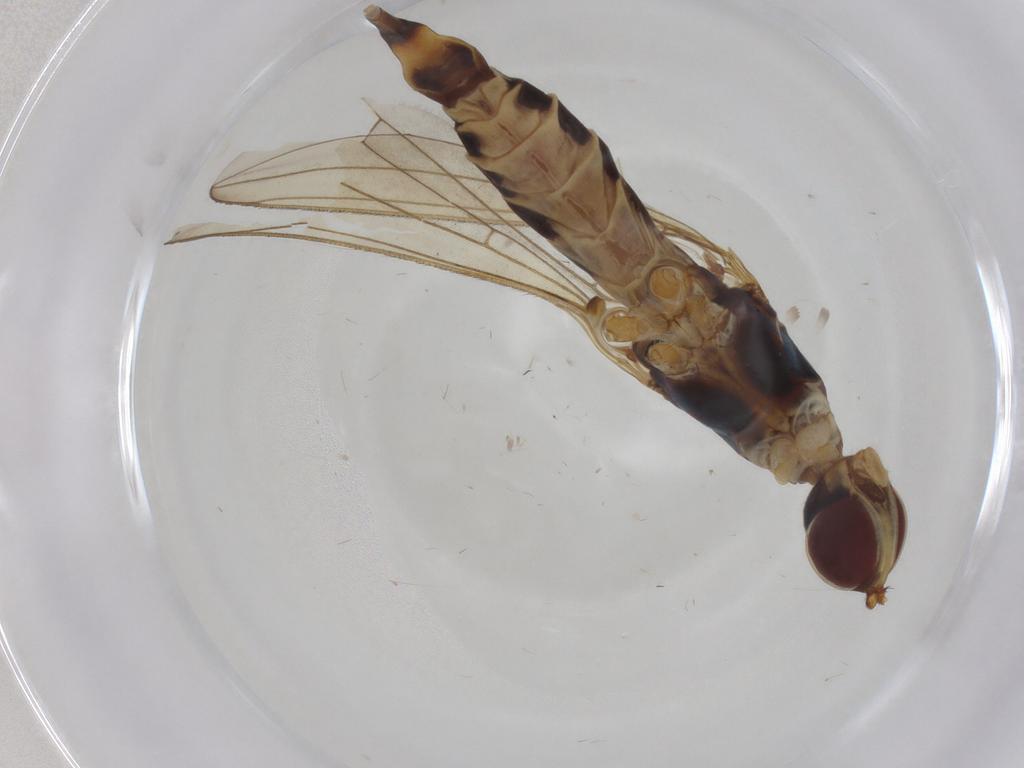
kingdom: Animalia
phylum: Arthropoda
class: Insecta
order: Diptera
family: Micropezidae
